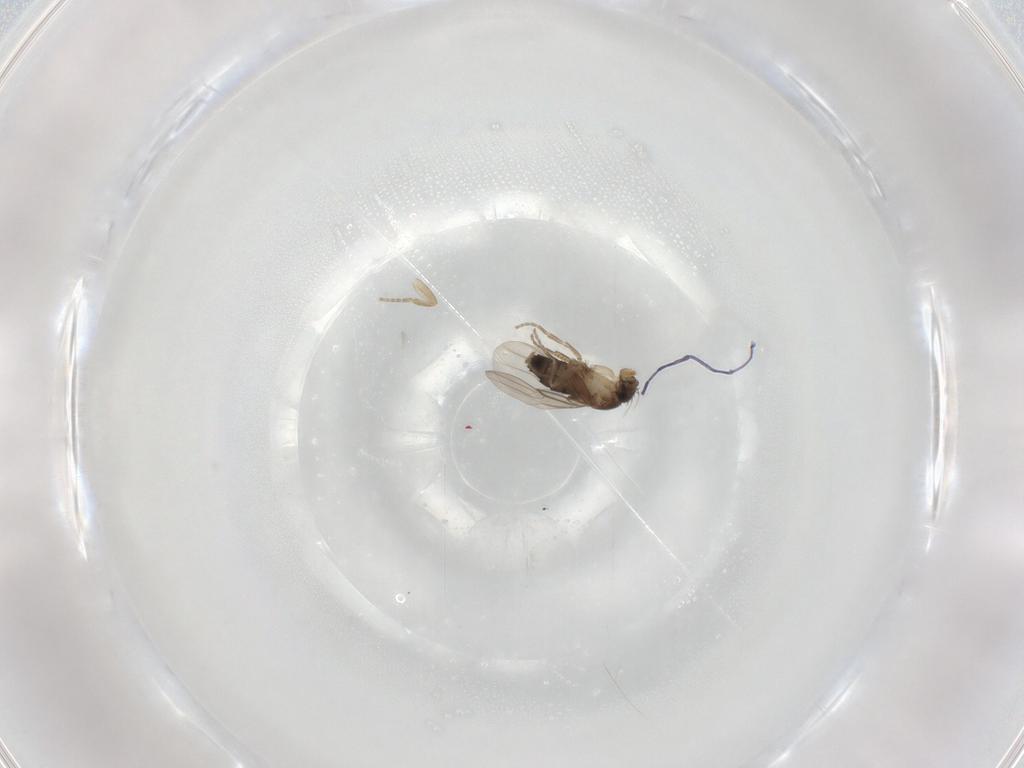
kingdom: Animalia
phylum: Arthropoda
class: Insecta
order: Diptera
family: Phoridae
